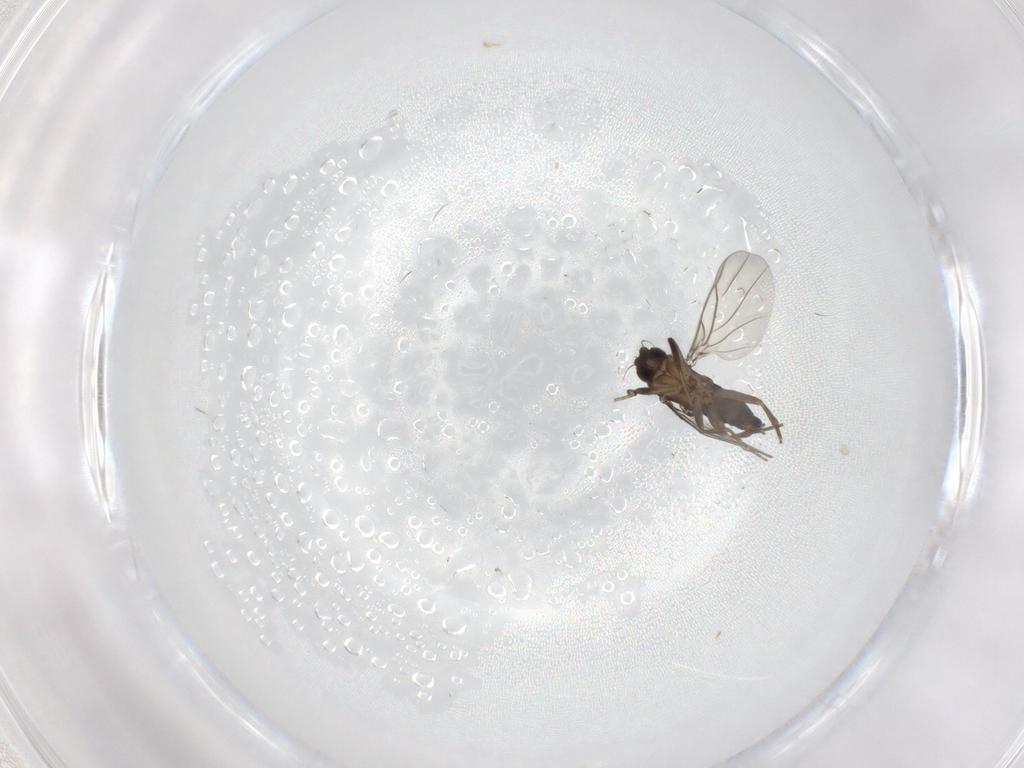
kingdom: Animalia
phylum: Arthropoda
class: Insecta
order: Diptera
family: Phoridae
